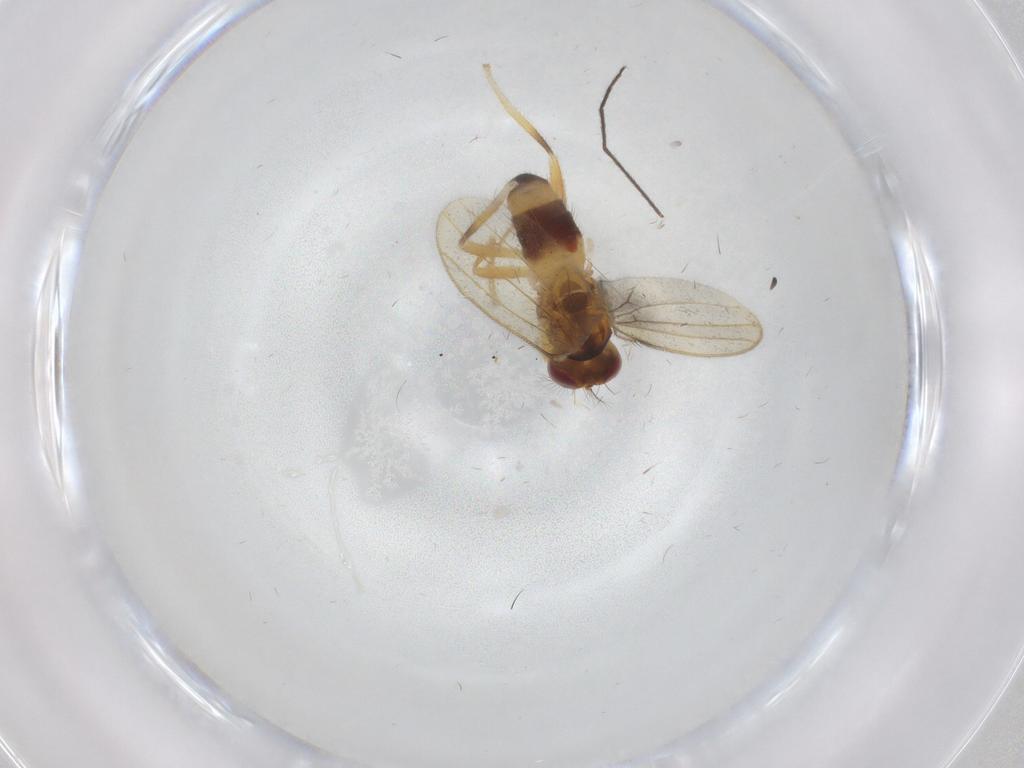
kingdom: Animalia
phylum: Arthropoda
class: Insecta
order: Diptera
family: Periscelididae
